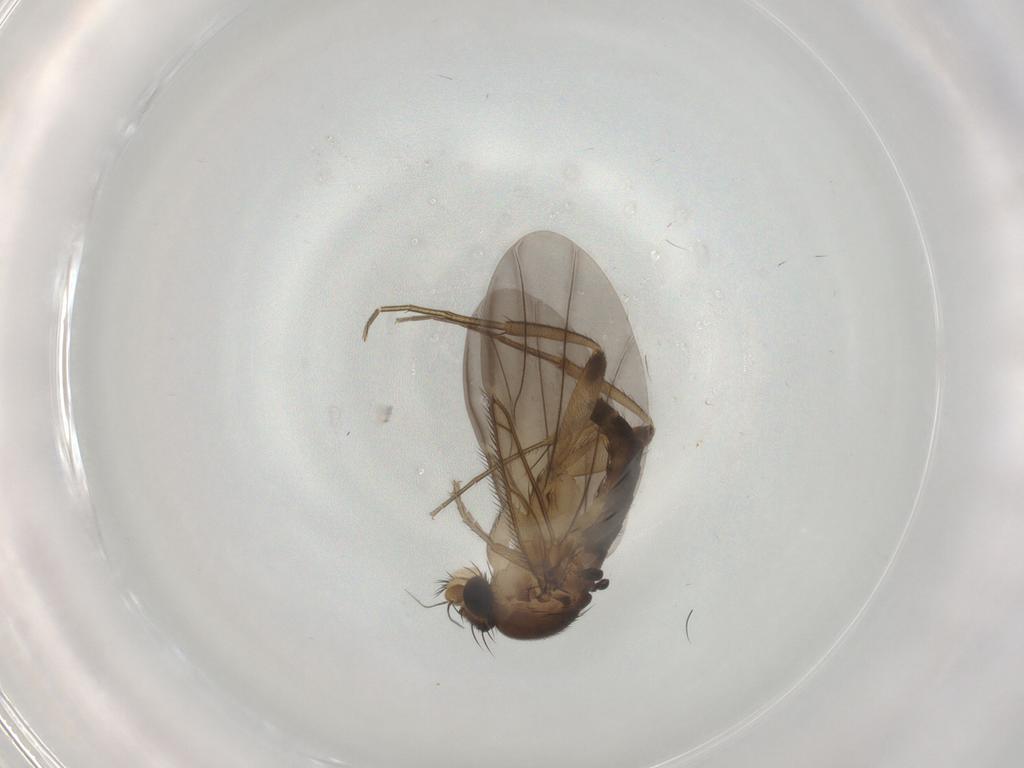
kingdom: Animalia
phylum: Arthropoda
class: Insecta
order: Diptera
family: Phoridae
